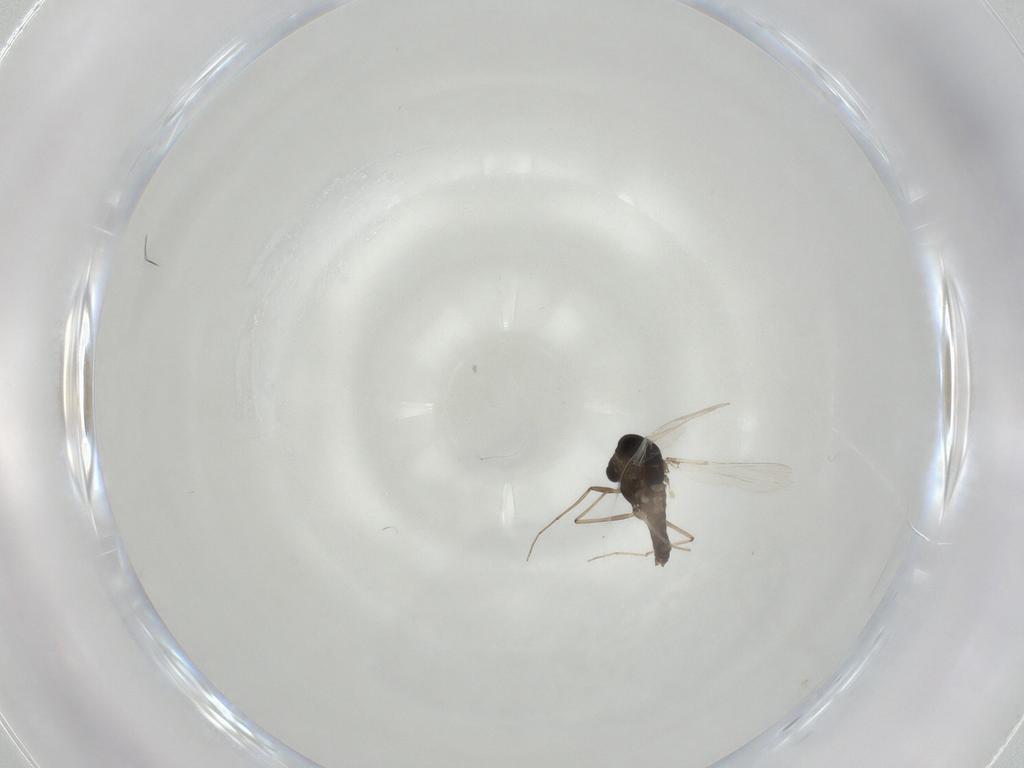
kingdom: Animalia
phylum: Arthropoda
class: Insecta
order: Diptera
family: Chironomidae
